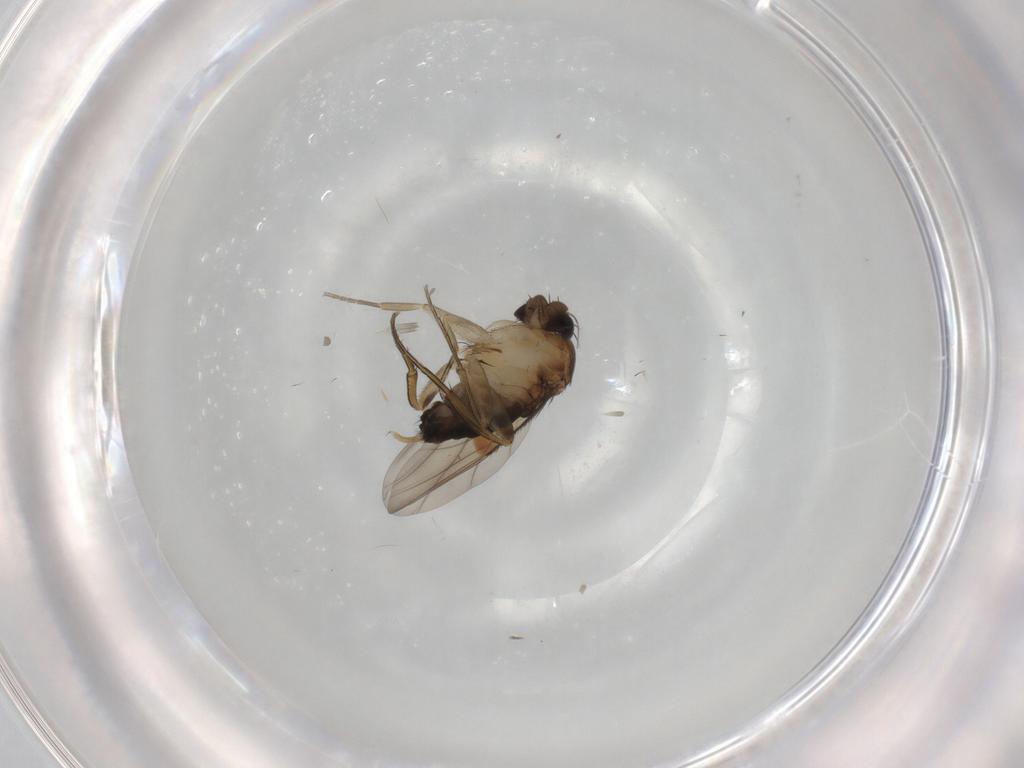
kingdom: Animalia
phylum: Arthropoda
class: Insecta
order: Diptera
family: Phoridae
